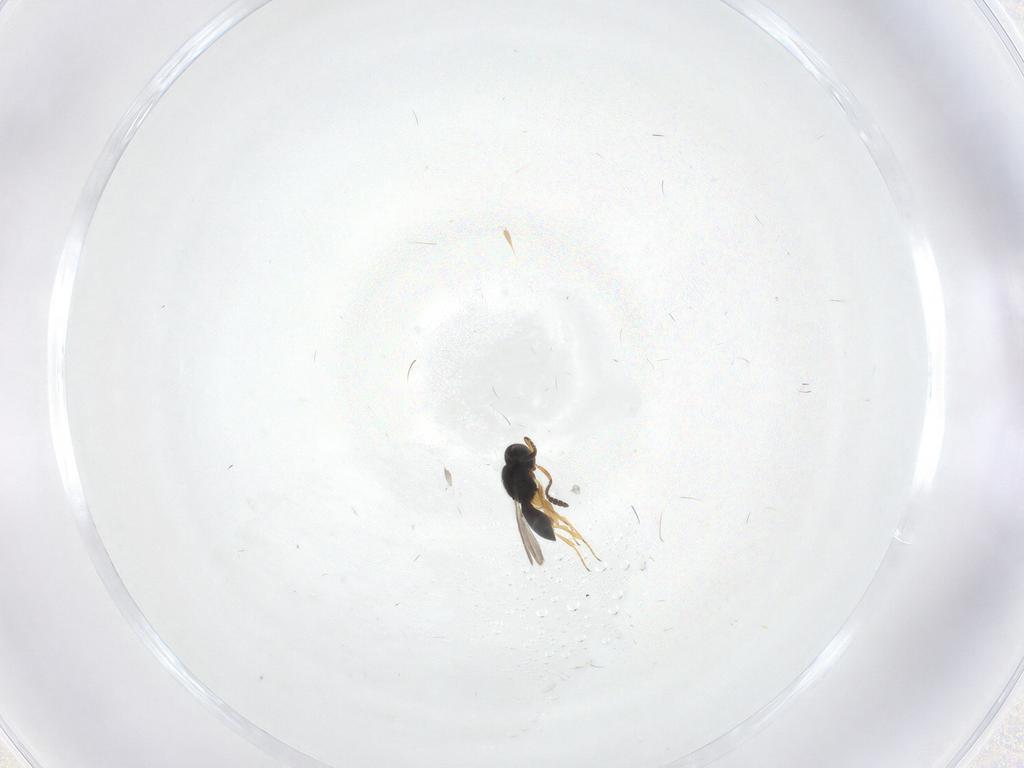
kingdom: Animalia
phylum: Arthropoda
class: Insecta
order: Hymenoptera
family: Scelionidae
